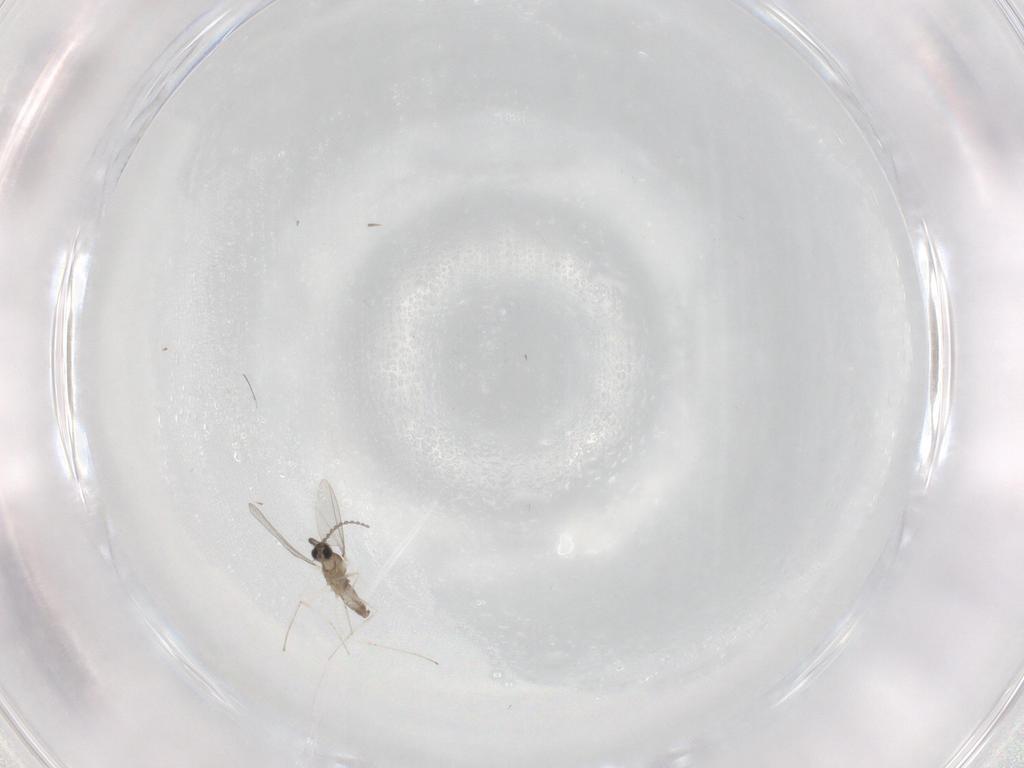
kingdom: Animalia
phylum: Arthropoda
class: Insecta
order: Diptera
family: Cecidomyiidae
